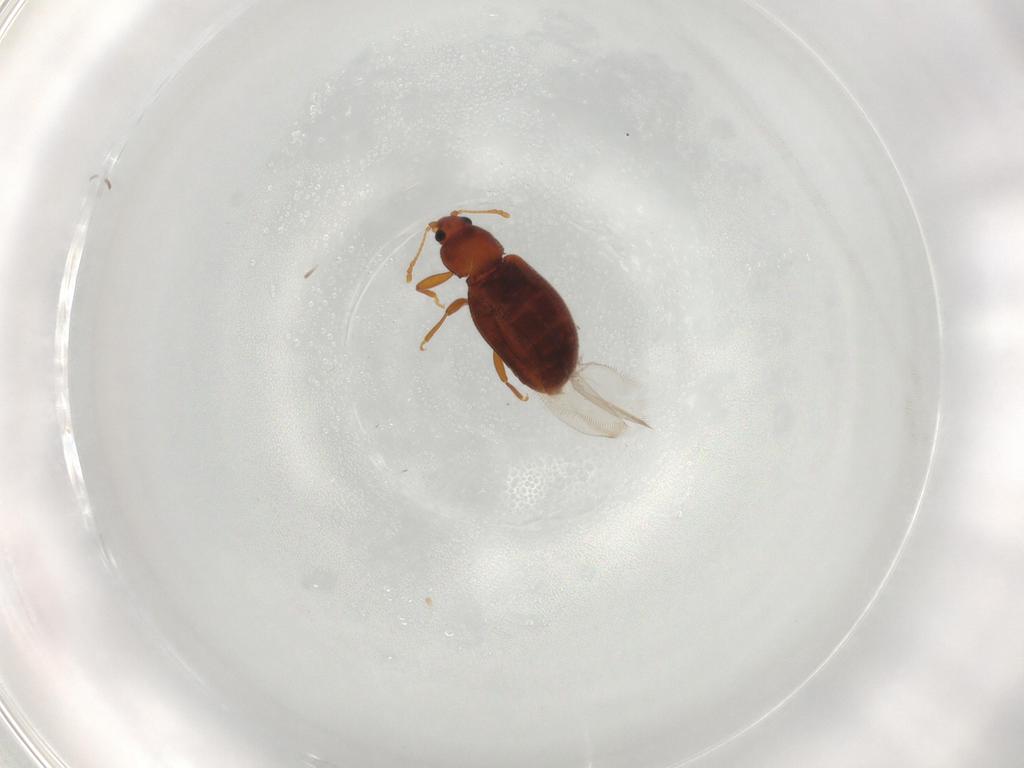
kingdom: Animalia
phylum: Arthropoda
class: Insecta
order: Coleoptera
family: Latridiidae
